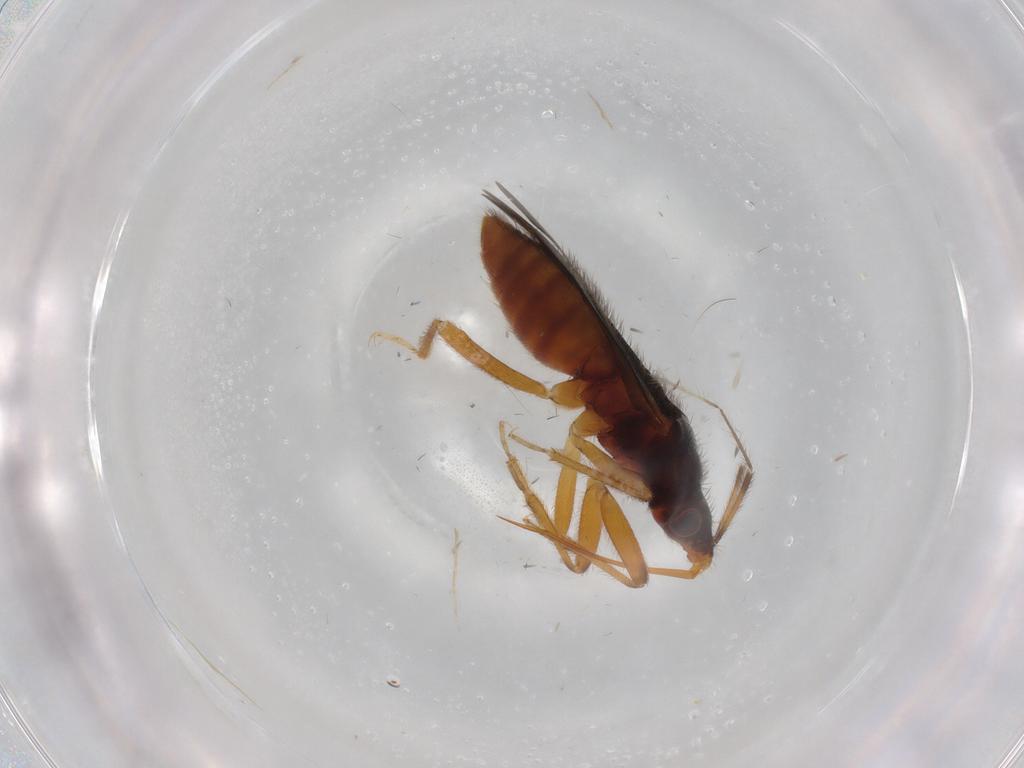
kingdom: Animalia
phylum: Arthropoda
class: Insecta
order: Hemiptera
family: Anthocoridae
